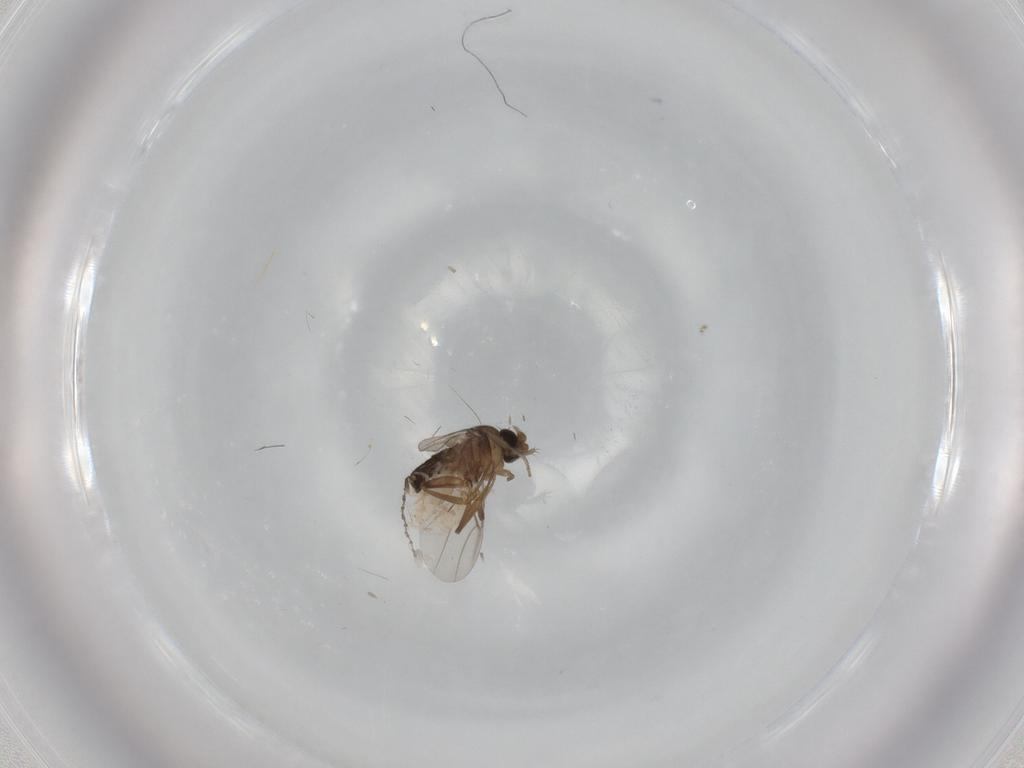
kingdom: Animalia
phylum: Arthropoda
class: Insecta
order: Diptera
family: Phoridae
